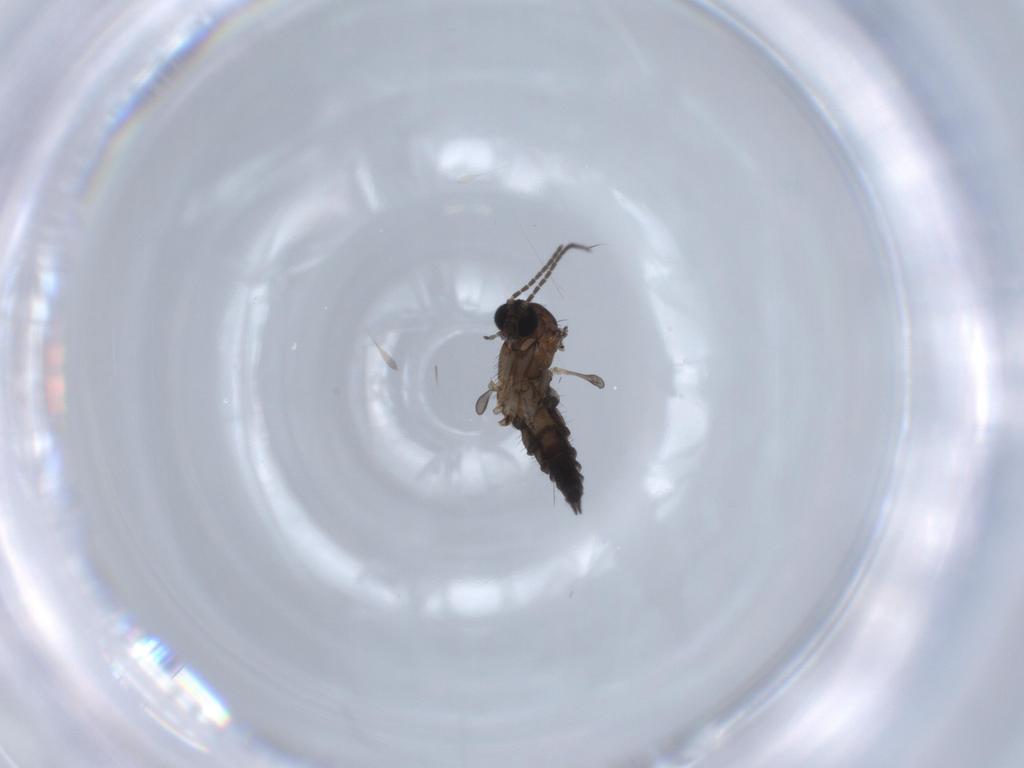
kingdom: Animalia
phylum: Arthropoda
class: Insecta
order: Diptera
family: Sciaridae
